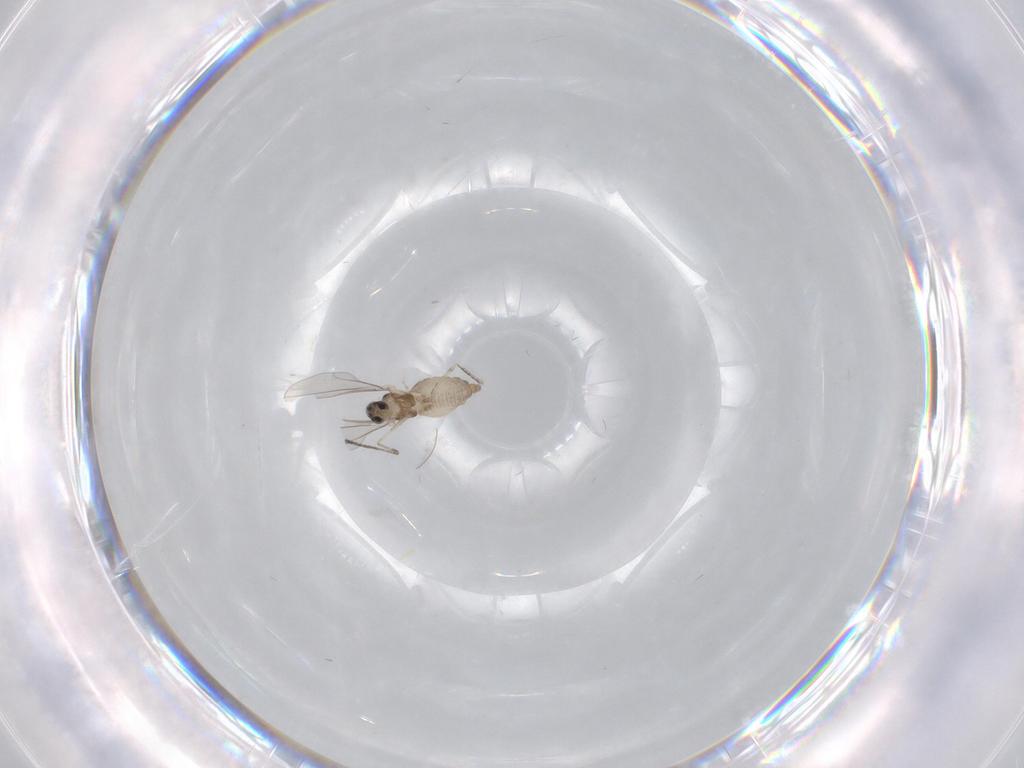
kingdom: Animalia
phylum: Arthropoda
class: Insecta
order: Diptera
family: Cecidomyiidae
